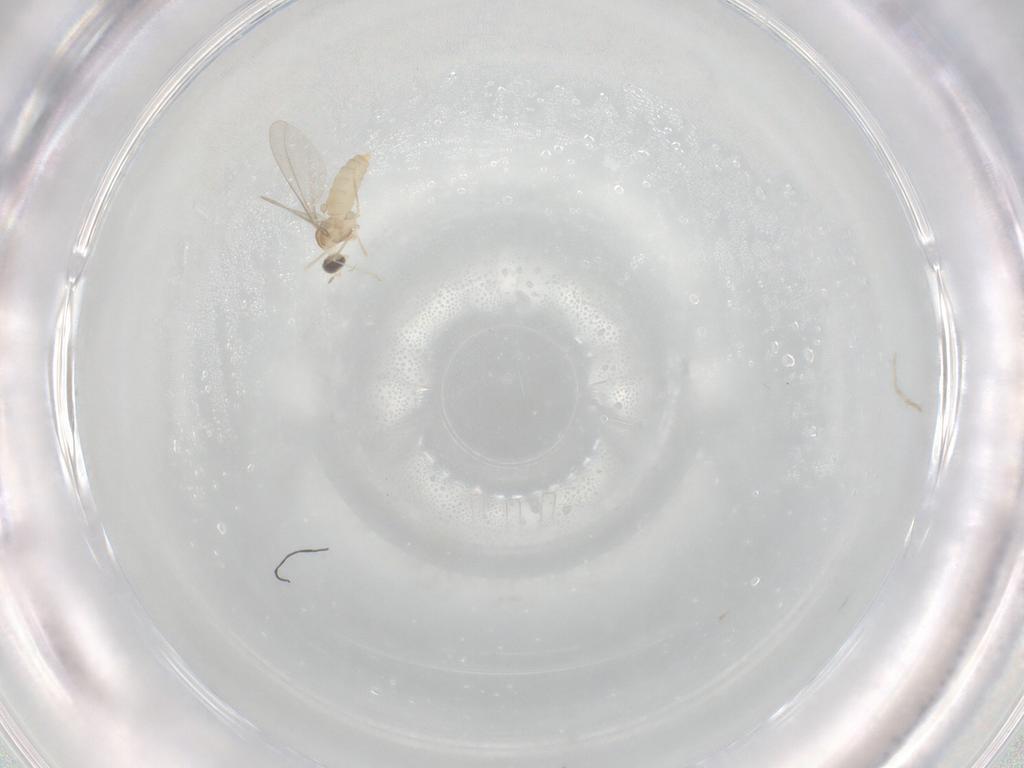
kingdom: Animalia
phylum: Arthropoda
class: Insecta
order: Diptera
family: Cecidomyiidae
